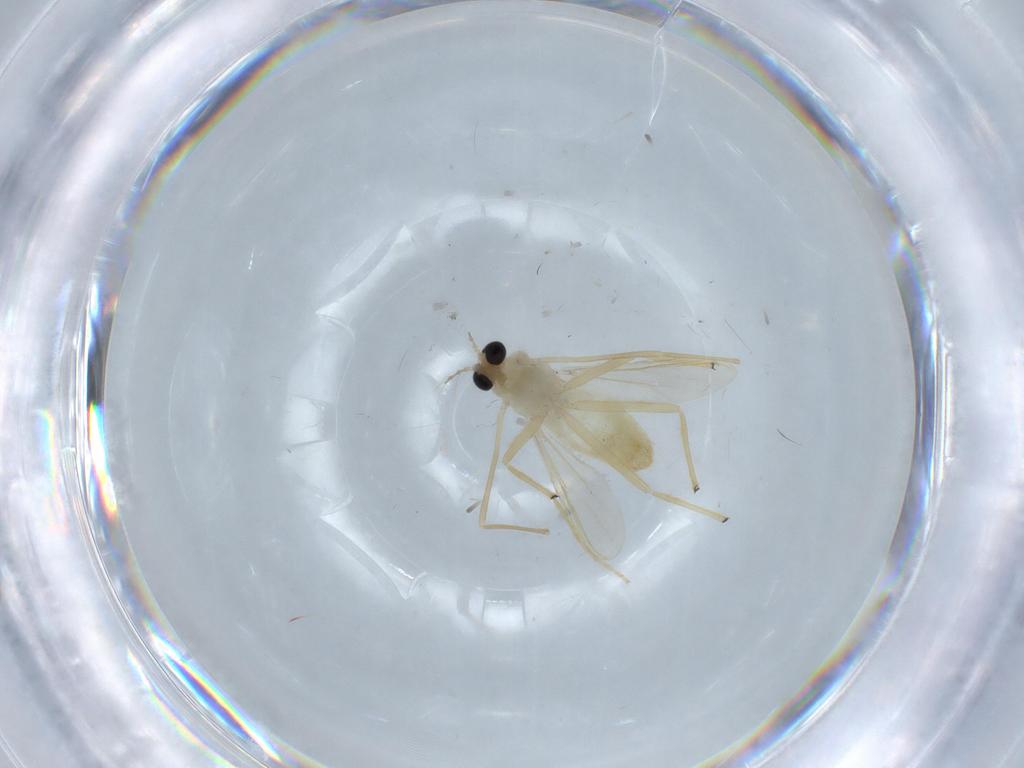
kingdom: Animalia
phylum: Arthropoda
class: Insecta
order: Diptera
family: Chironomidae
